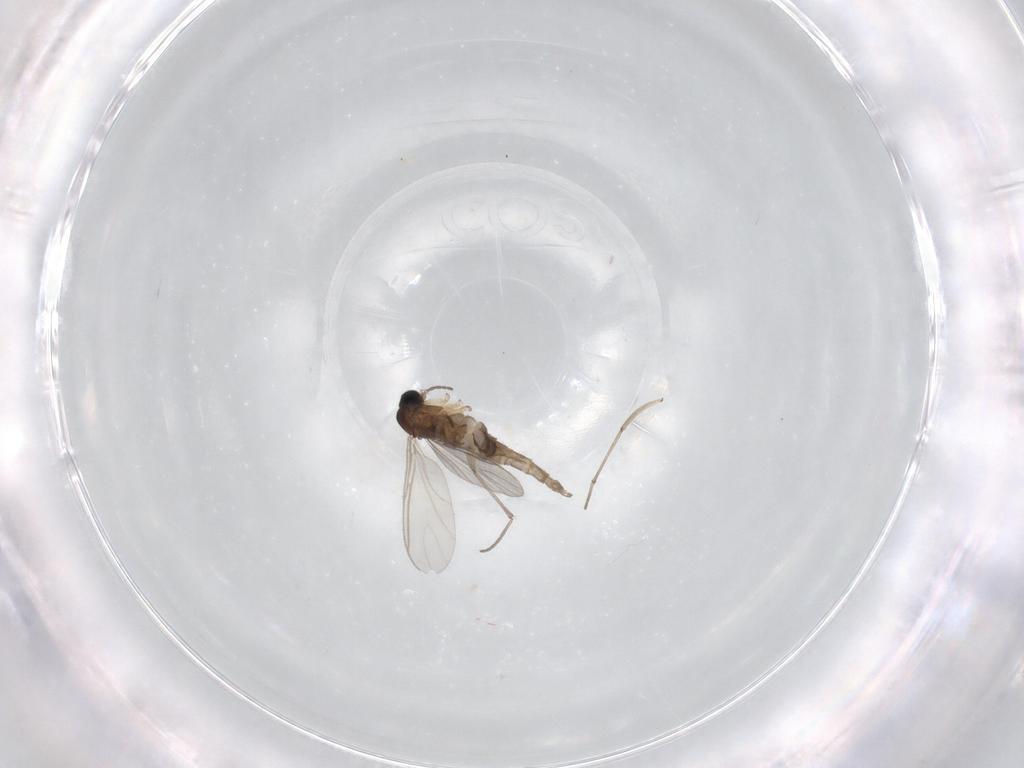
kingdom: Animalia
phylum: Arthropoda
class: Insecta
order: Diptera
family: Sciaridae
